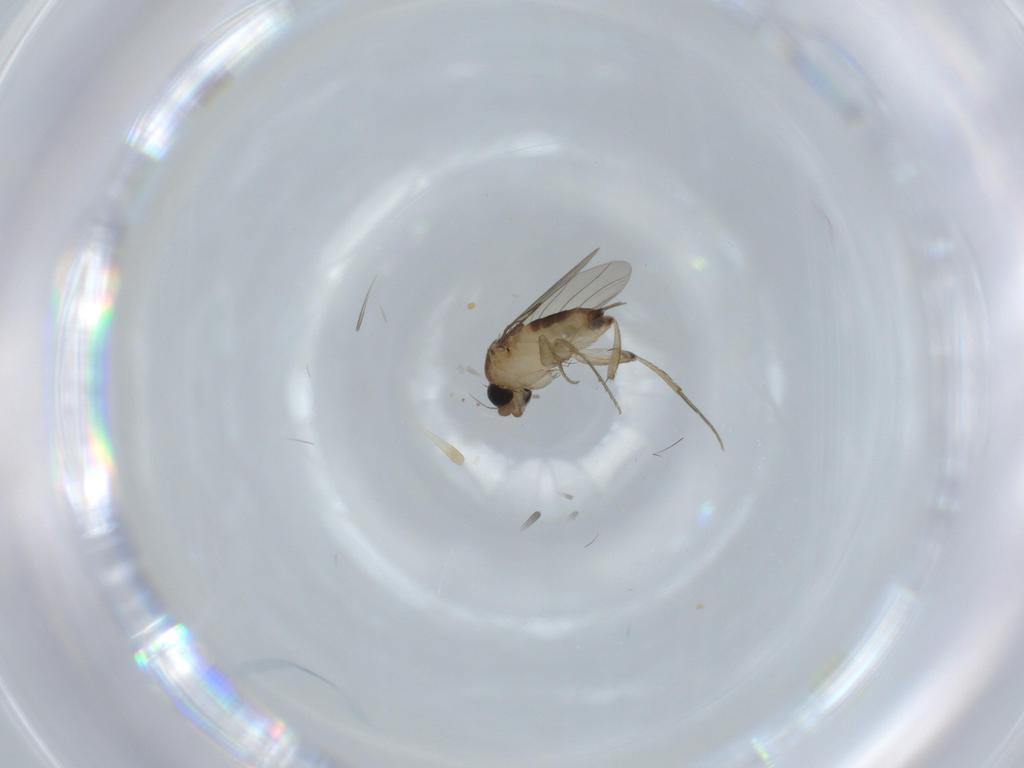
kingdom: Animalia
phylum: Arthropoda
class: Insecta
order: Diptera
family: Phoridae
